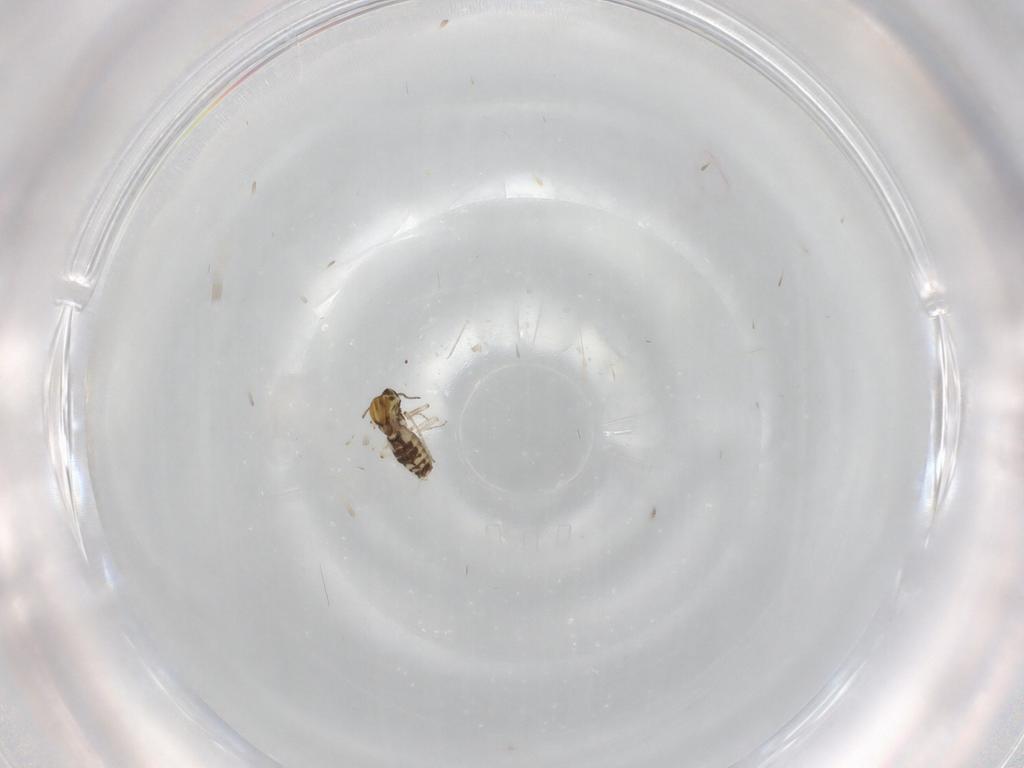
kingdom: Animalia
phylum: Arthropoda
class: Insecta
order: Diptera
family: Ceratopogonidae
